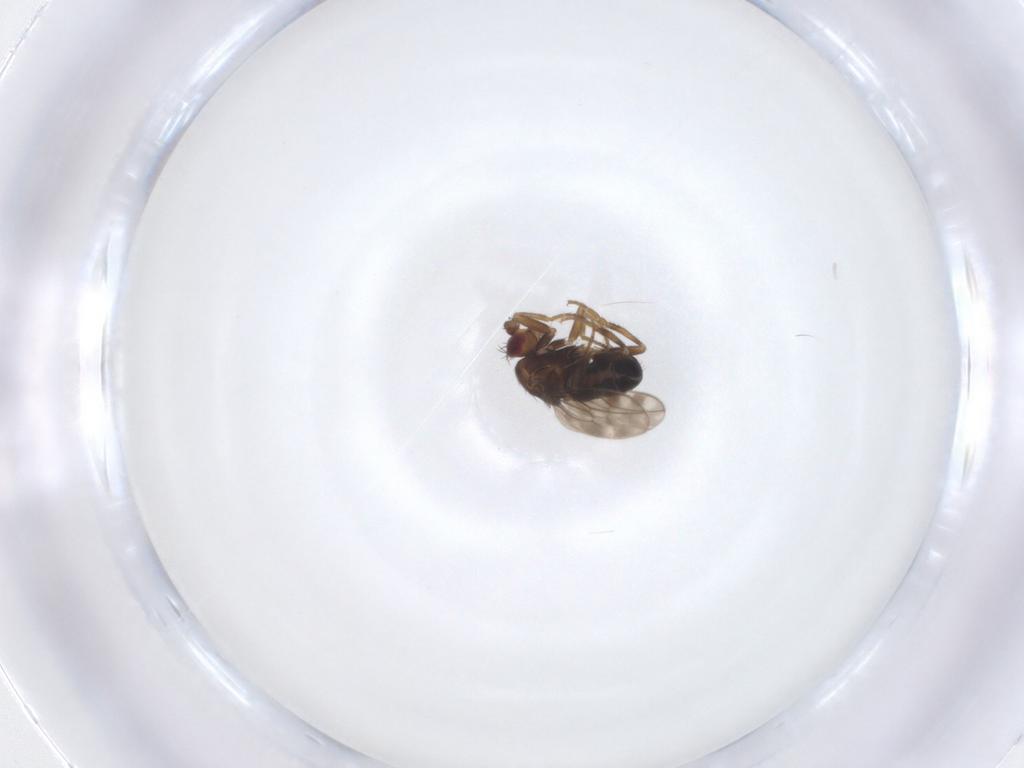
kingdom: Animalia
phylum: Arthropoda
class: Insecta
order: Diptera
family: Sphaeroceridae
